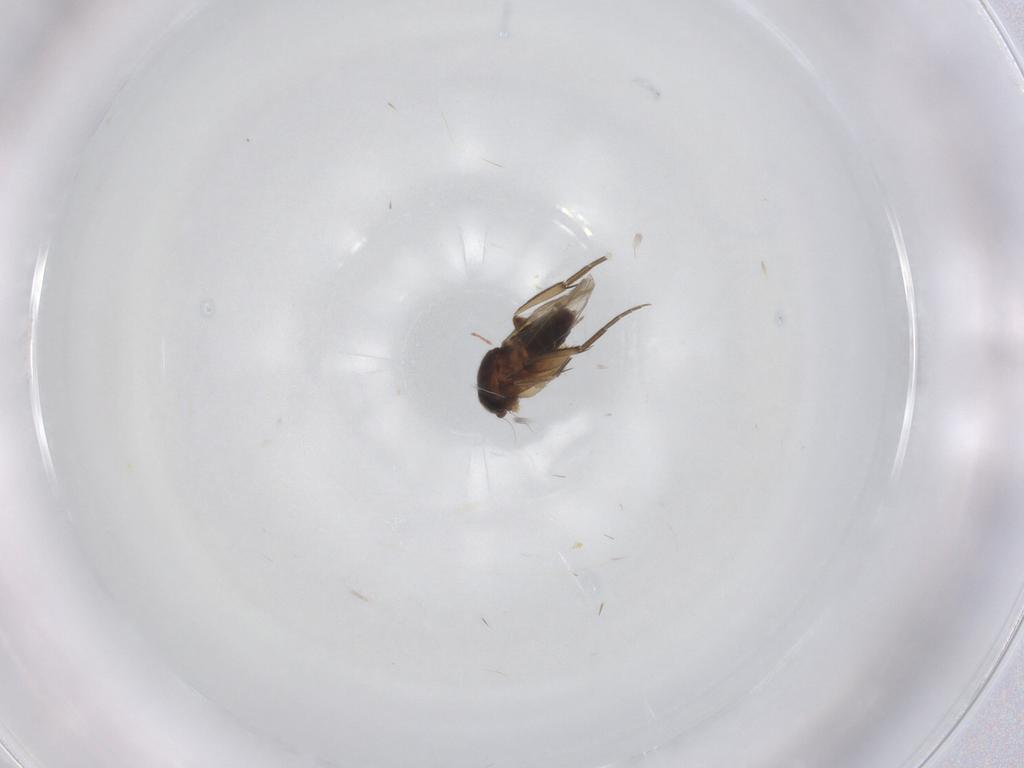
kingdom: Animalia
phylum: Arthropoda
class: Insecta
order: Diptera
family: Phoridae
